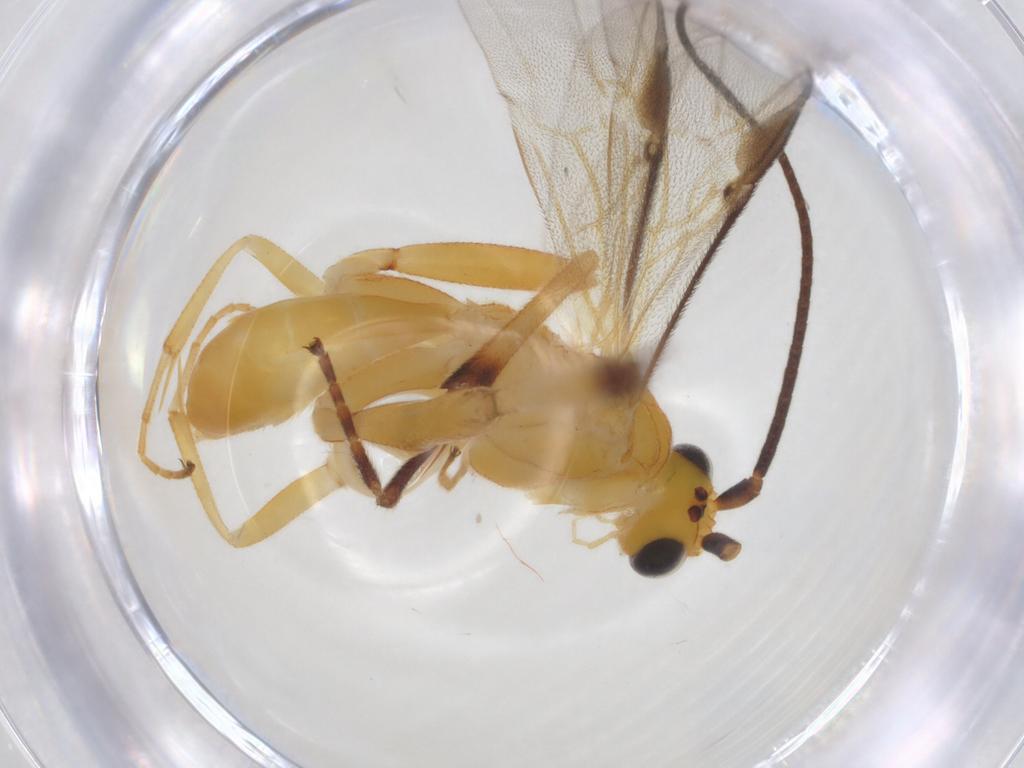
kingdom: Animalia
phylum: Arthropoda
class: Insecta
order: Hymenoptera
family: Braconidae
